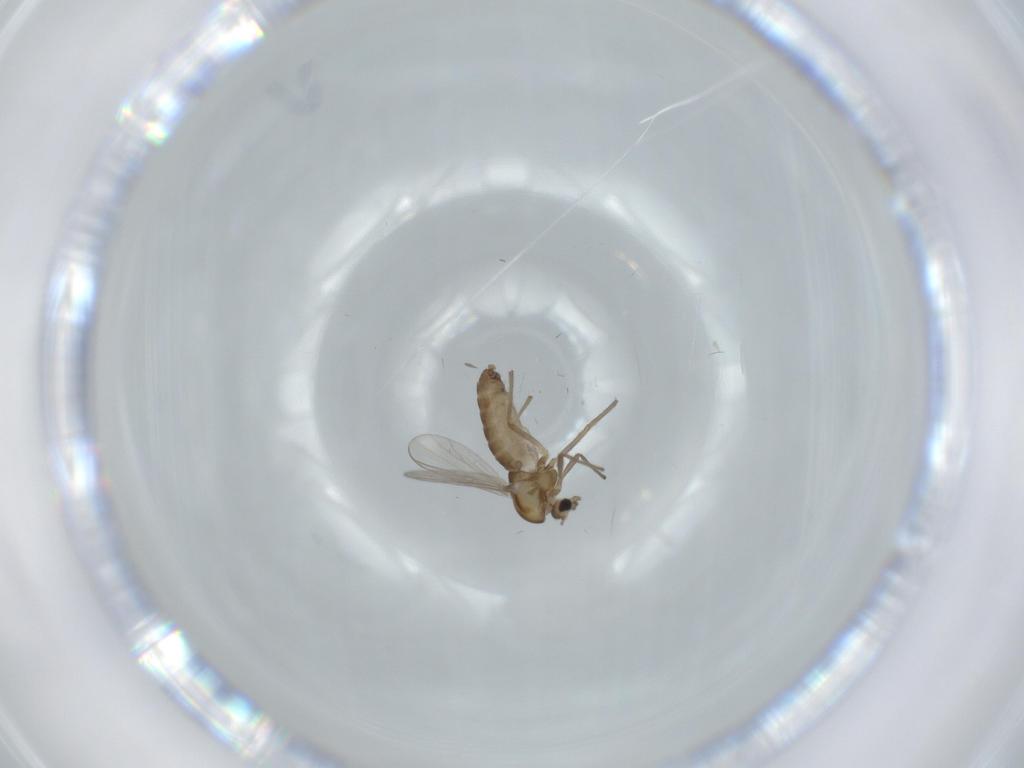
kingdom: Animalia
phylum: Arthropoda
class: Insecta
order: Diptera
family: Chironomidae
